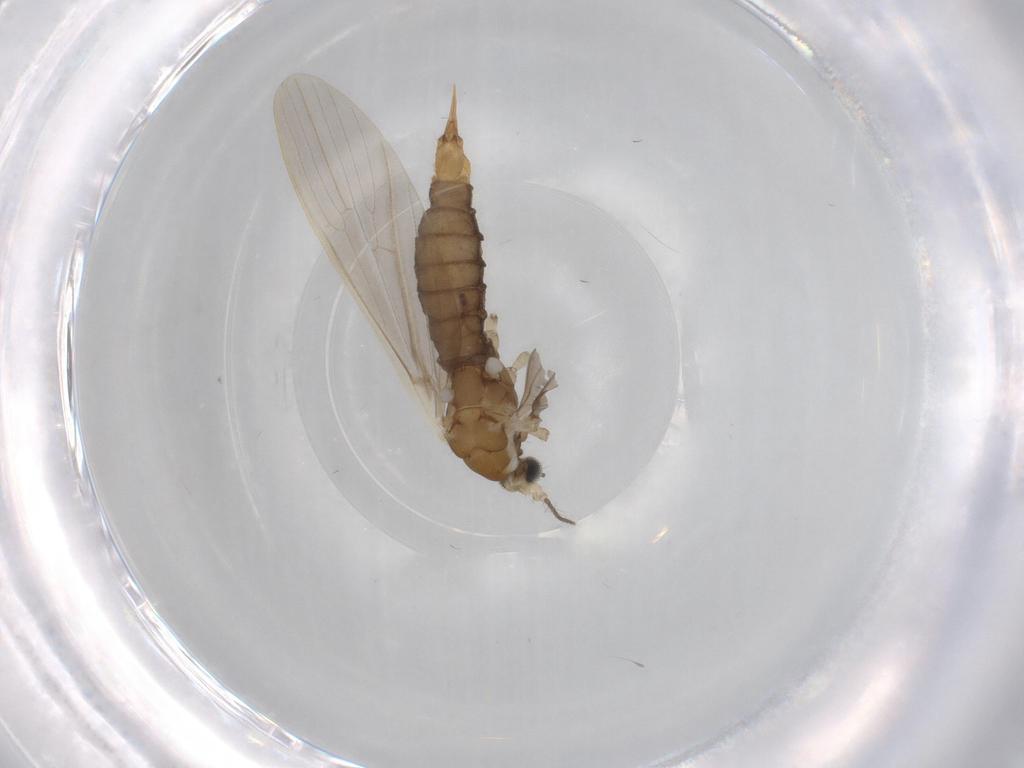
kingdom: Animalia
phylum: Arthropoda
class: Insecta
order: Diptera
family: Limoniidae
